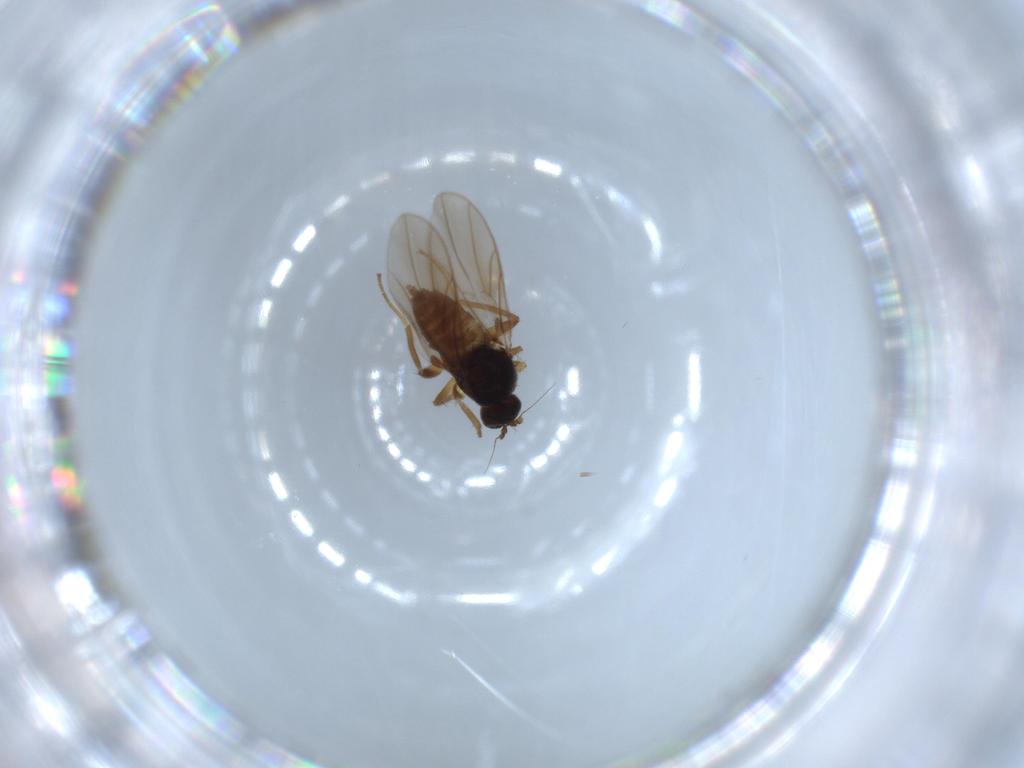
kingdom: Animalia
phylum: Arthropoda
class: Insecta
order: Diptera
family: Hybotidae
